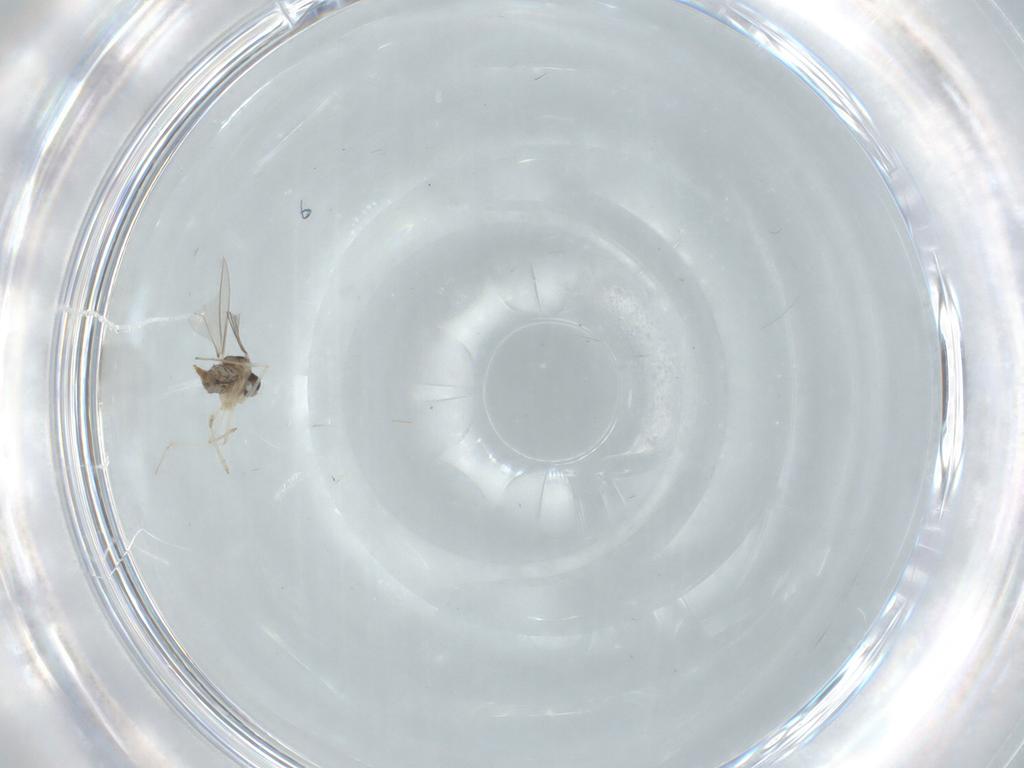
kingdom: Animalia
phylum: Arthropoda
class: Insecta
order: Diptera
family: Cecidomyiidae
